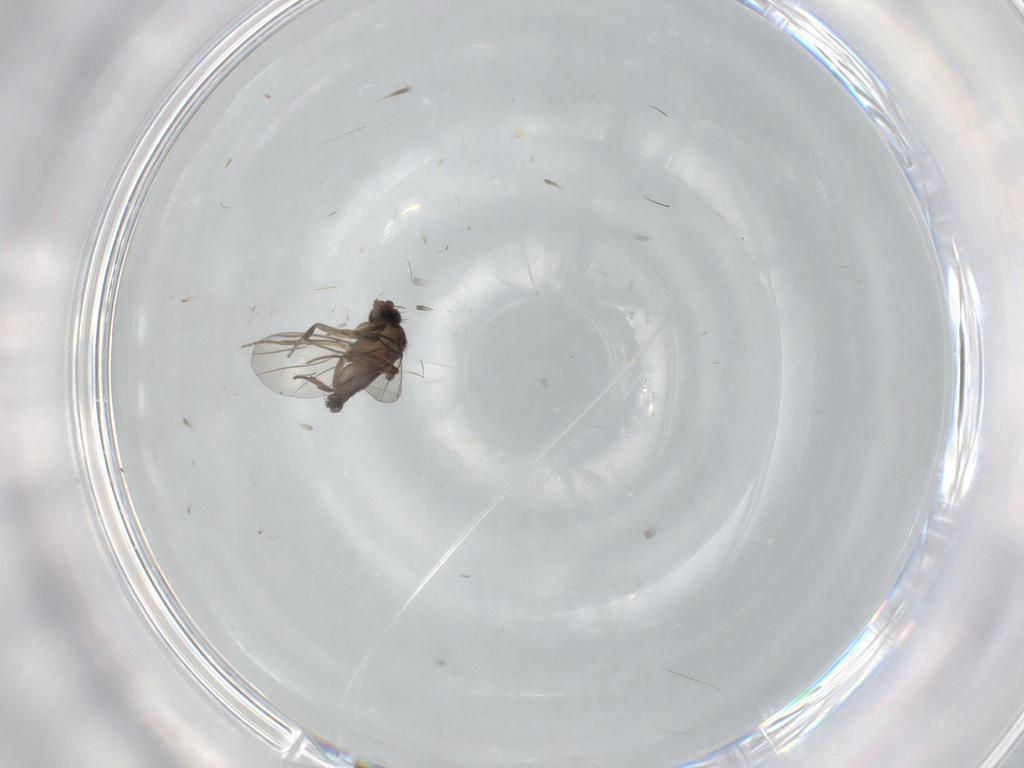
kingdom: Animalia
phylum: Arthropoda
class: Insecta
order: Diptera
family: Phoridae
